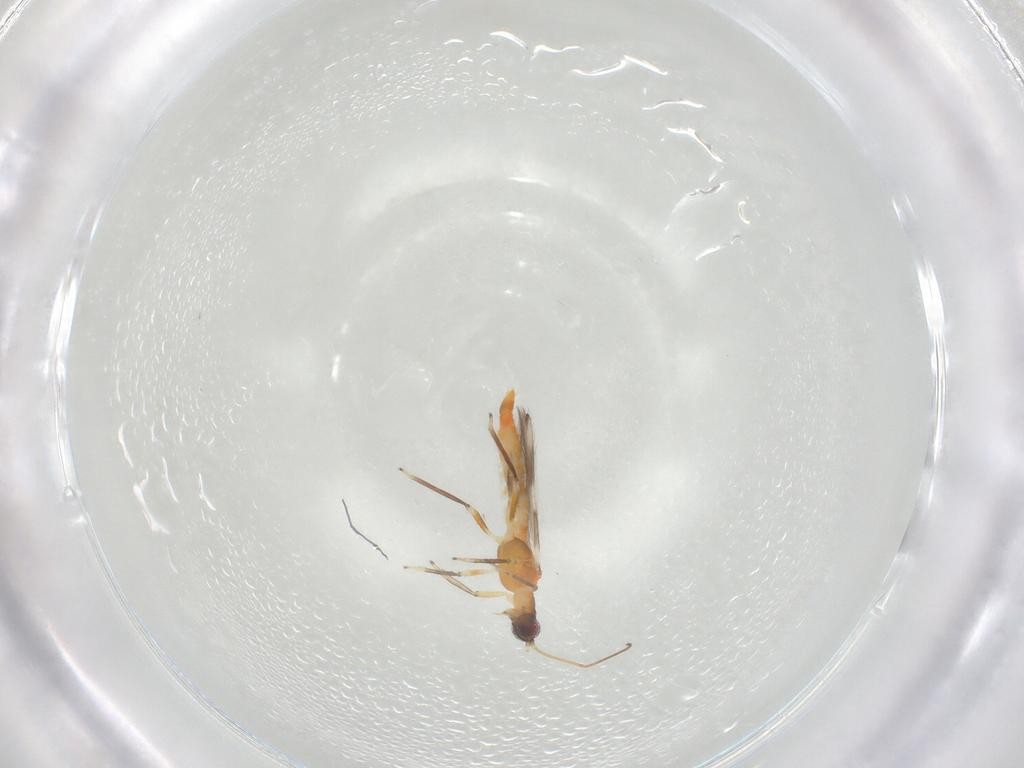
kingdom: Animalia
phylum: Arthropoda
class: Insecta
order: Thysanoptera
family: Aeolothripidae
